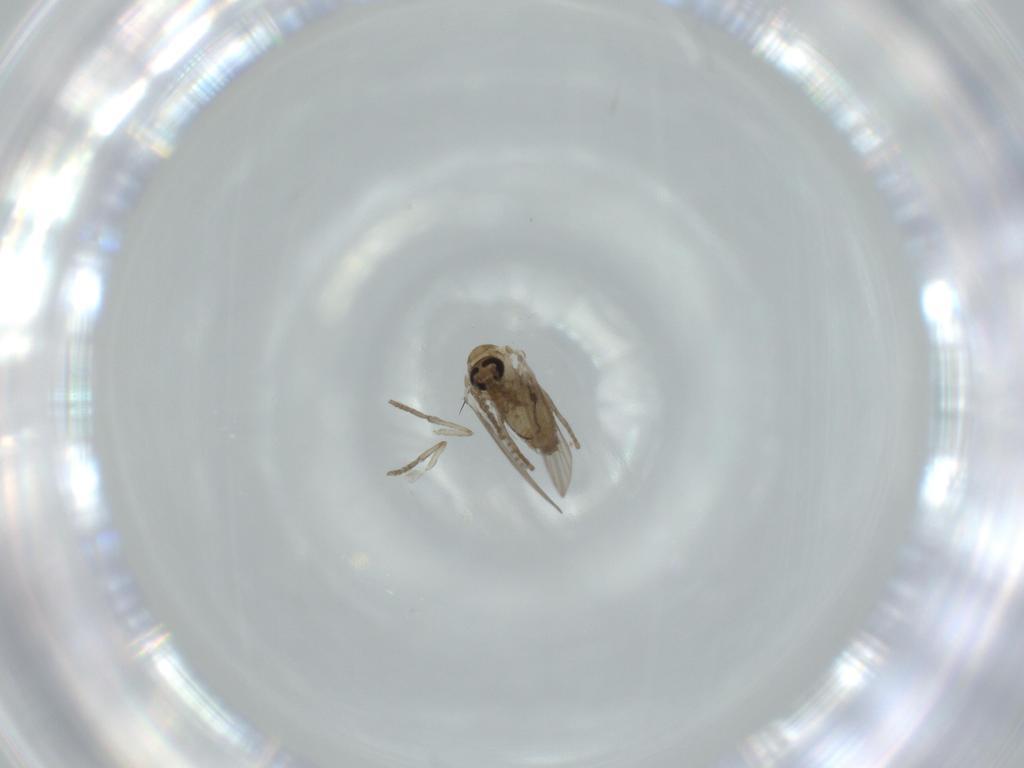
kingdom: Animalia
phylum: Arthropoda
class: Insecta
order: Diptera
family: Psychodidae
